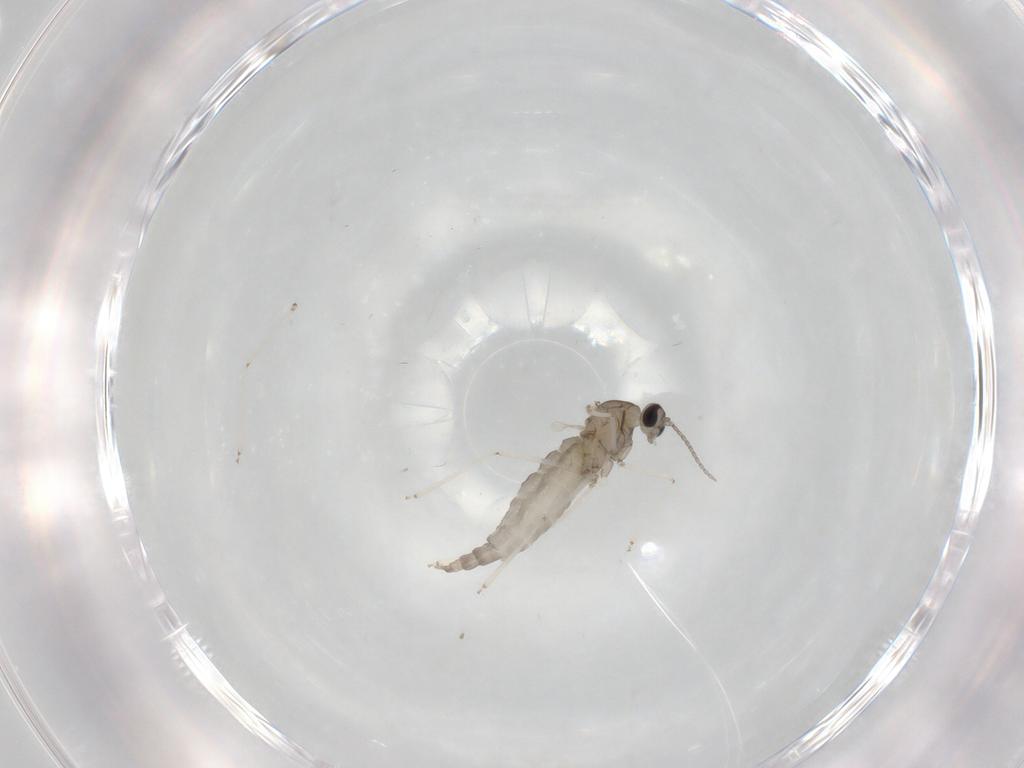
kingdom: Animalia
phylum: Arthropoda
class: Insecta
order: Diptera
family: Cecidomyiidae
